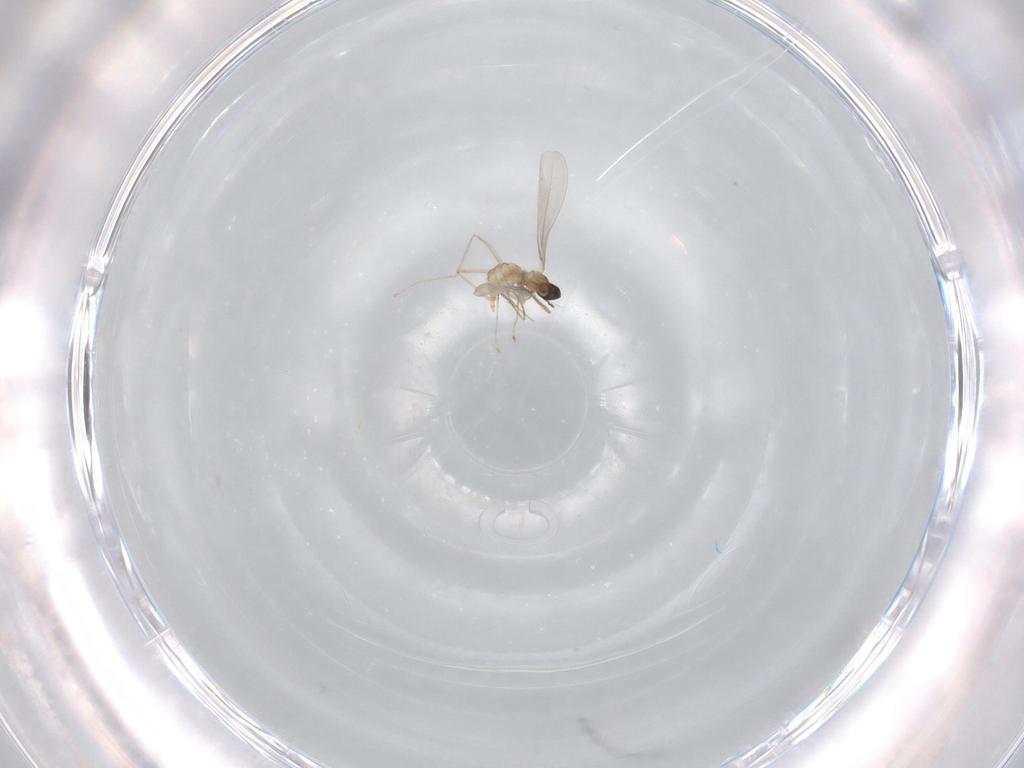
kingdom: Animalia
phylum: Arthropoda
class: Insecta
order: Diptera
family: Cecidomyiidae
